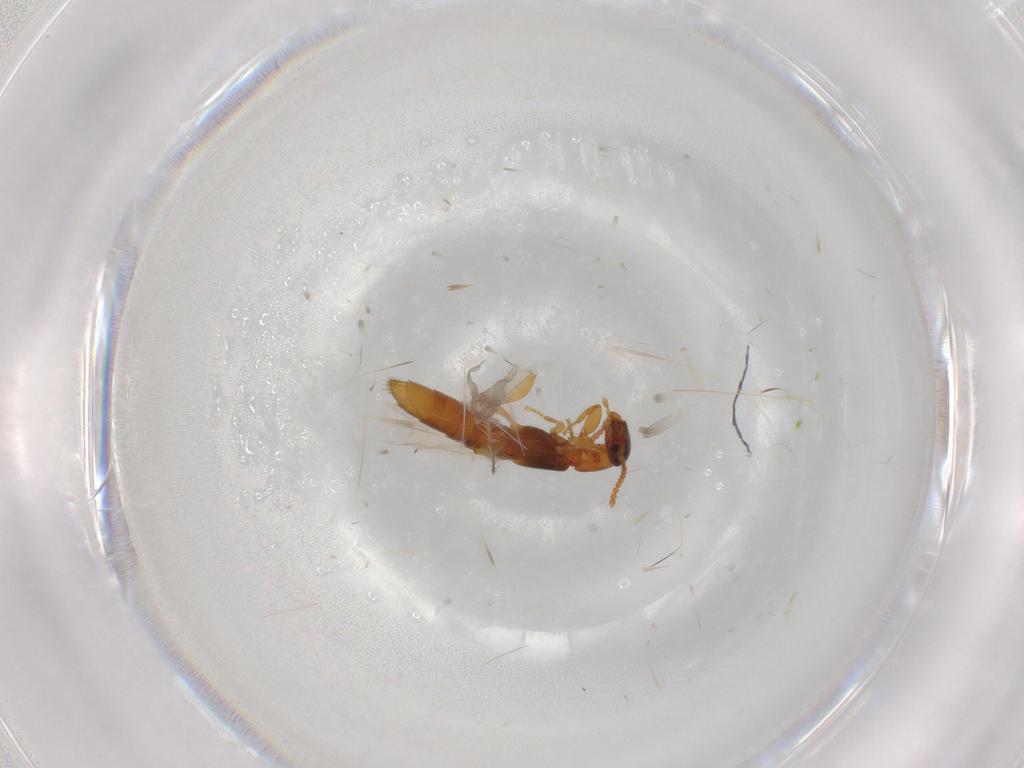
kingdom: Animalia
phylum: Arthropoda
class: Insecta
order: Coleoptera
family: Staphylinidae
